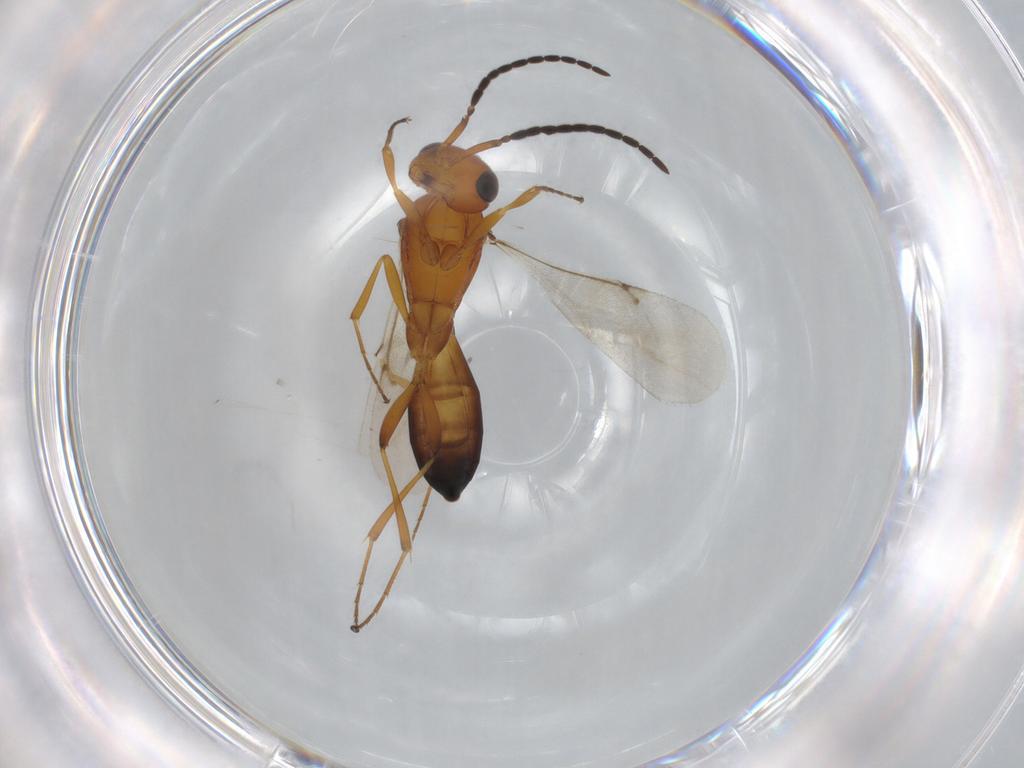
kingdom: Animalia
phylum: Arthropoda
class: Insecta
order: Hymenoptera
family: Scelionidae
